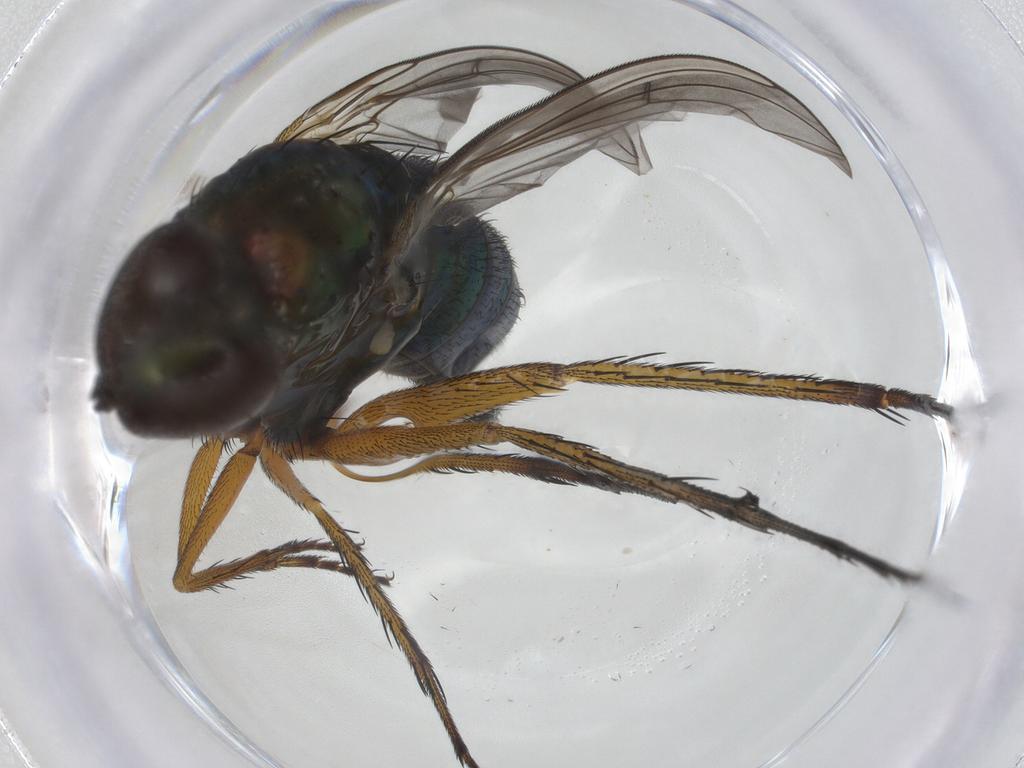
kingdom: Animalia
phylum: Arthropoda
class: Insecta
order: Diptera
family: Dolichopodidae
